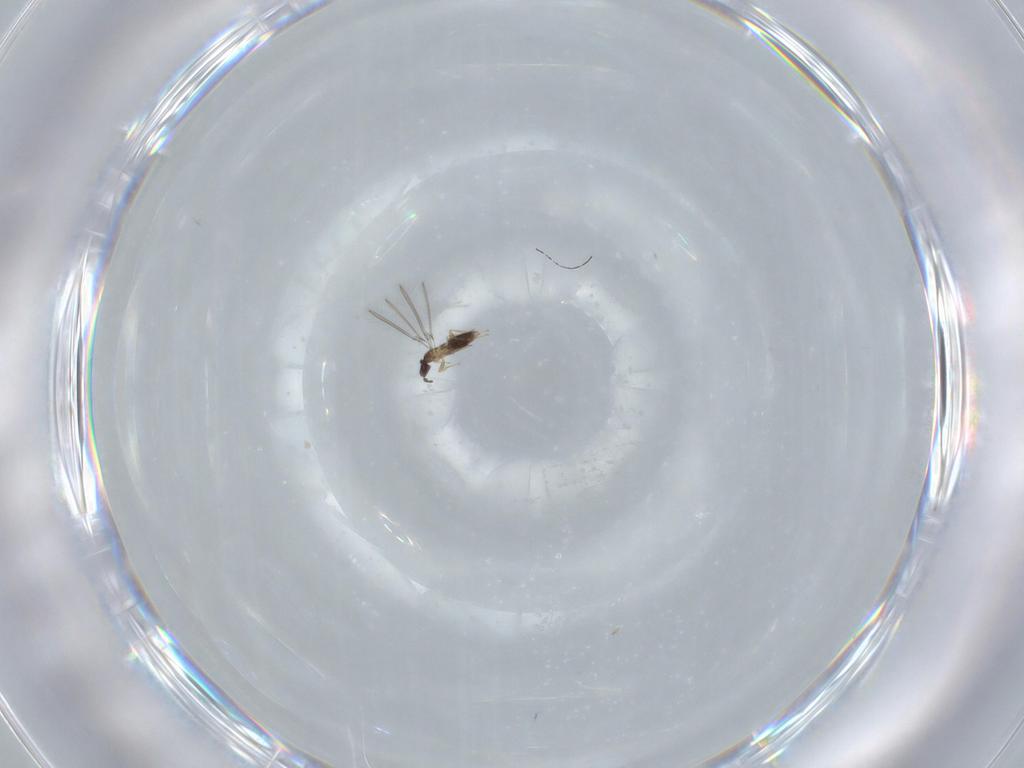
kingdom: Animalia
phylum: Arthropoda
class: Insecta
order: Hymenoptera
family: Mymaridae
